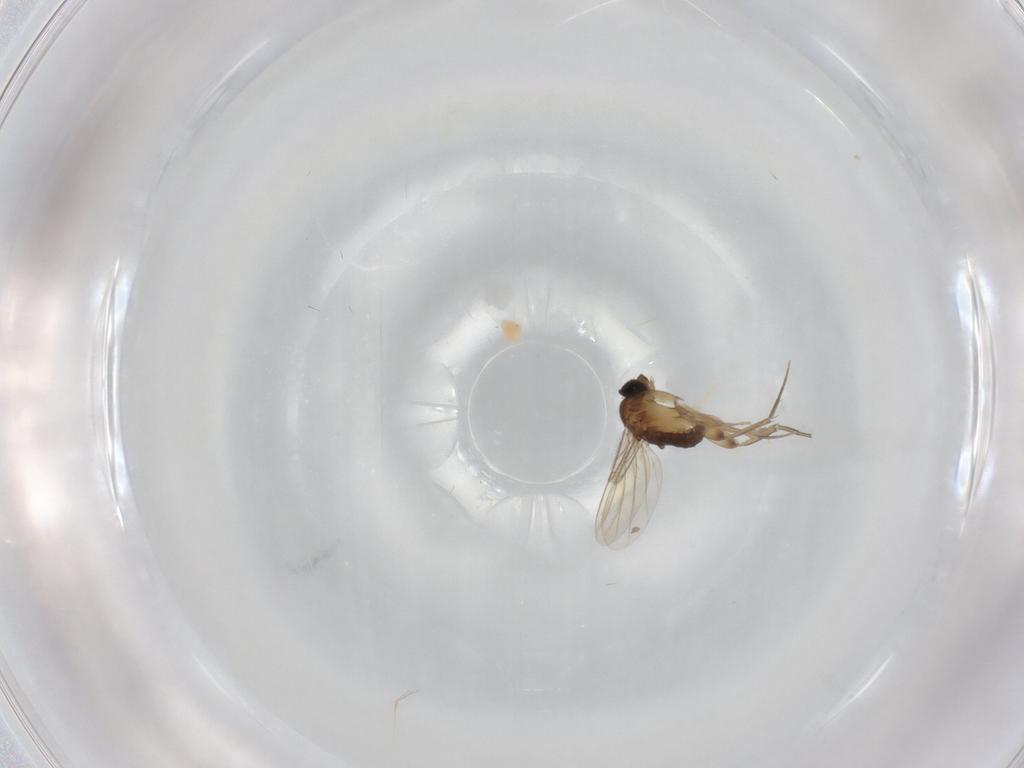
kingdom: Animalia
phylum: Arthropoda
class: Insecta
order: Diptera
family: Phoridae
